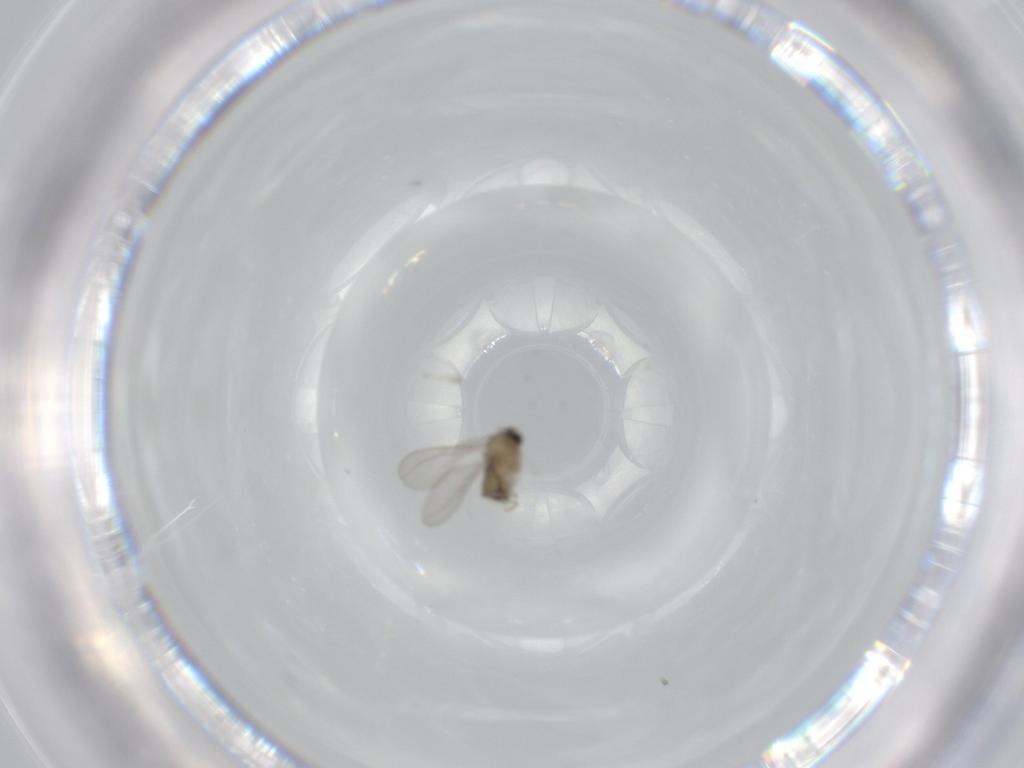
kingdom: Animalia
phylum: Arthropoda
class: Insecta
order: Diptera
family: Cecidomyiidae
